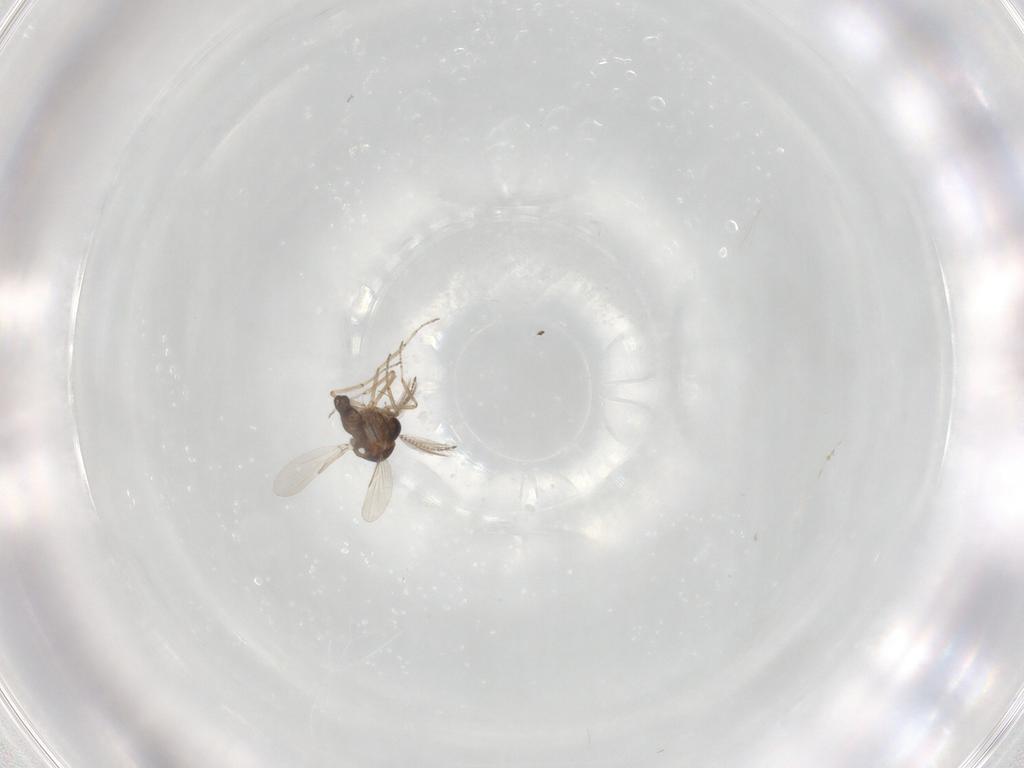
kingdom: Animalia
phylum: Arthropoda
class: Insecta
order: Diptera
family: Ceratopogonidae
